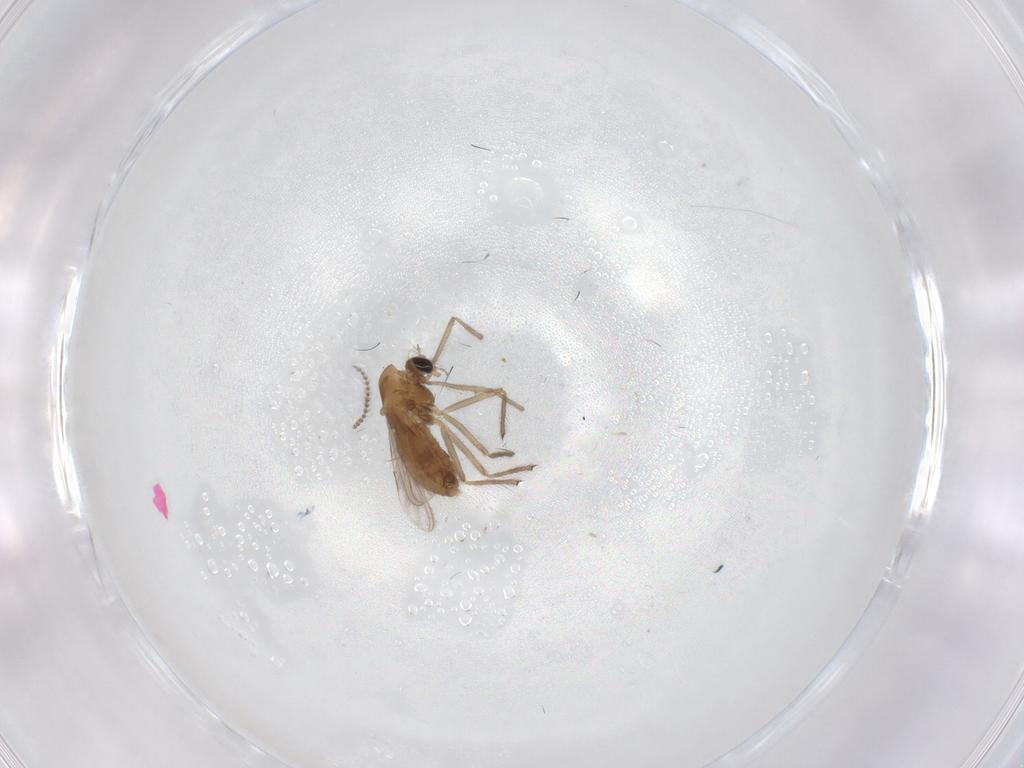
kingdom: Animalia
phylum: Arthropoda
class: Insecta
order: Diptera
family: Chironomidae
